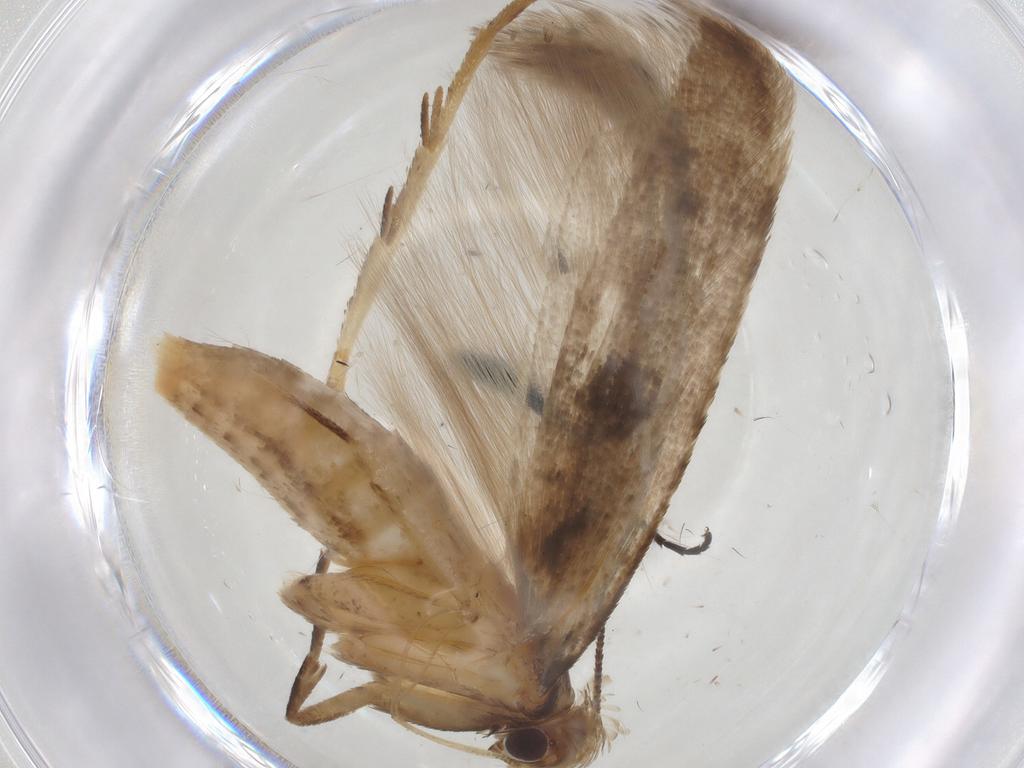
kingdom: Animalia
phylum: Arthropoda
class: Insecta
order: Lepidoptera
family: Gelechiidae
